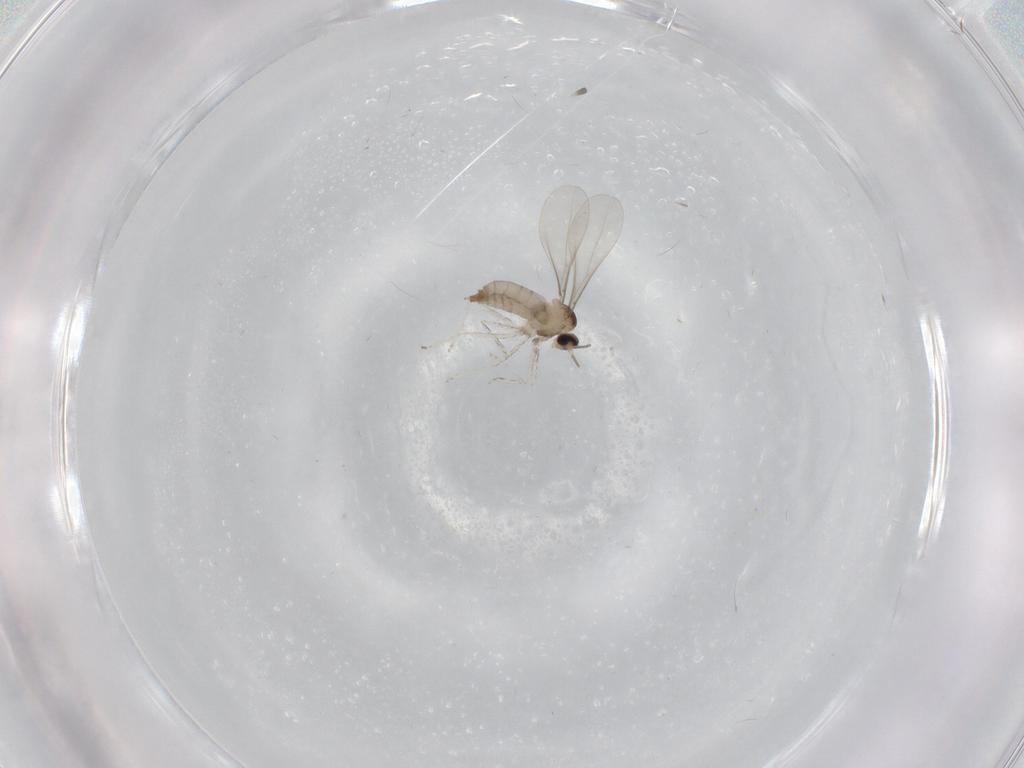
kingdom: Animalia
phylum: Arthropoda
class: Insecta
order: Diptera
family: Cecidomyiidae
